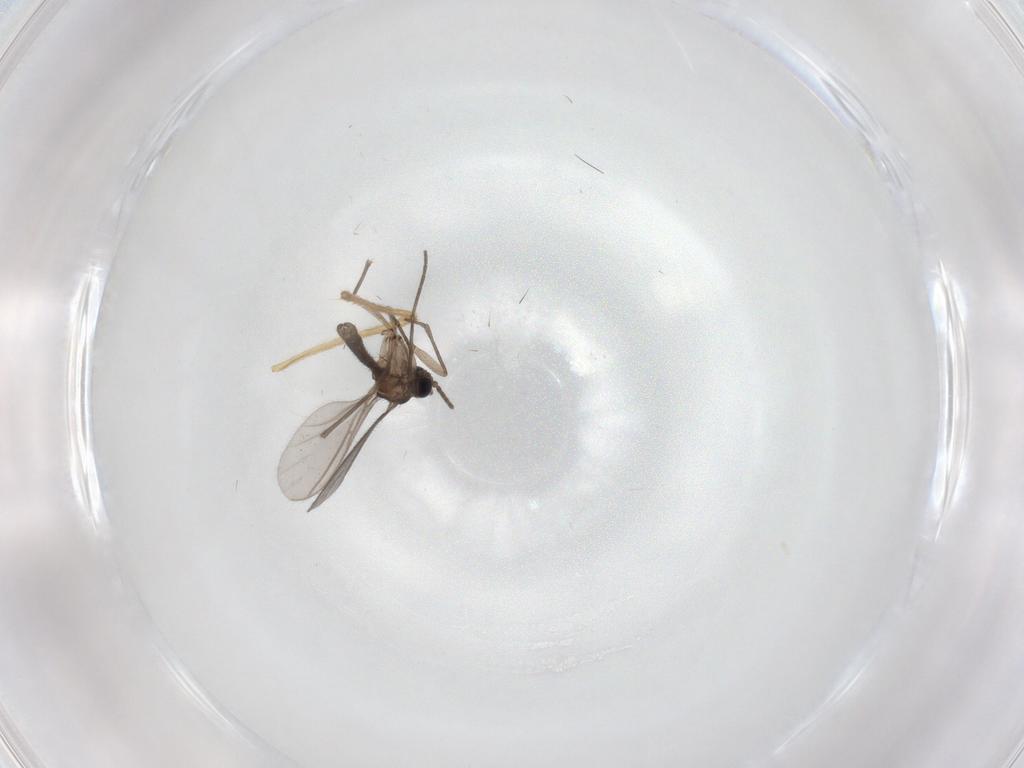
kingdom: Animalia
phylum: Arthropoda
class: Insecta
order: Diptera
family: Sciaridae
